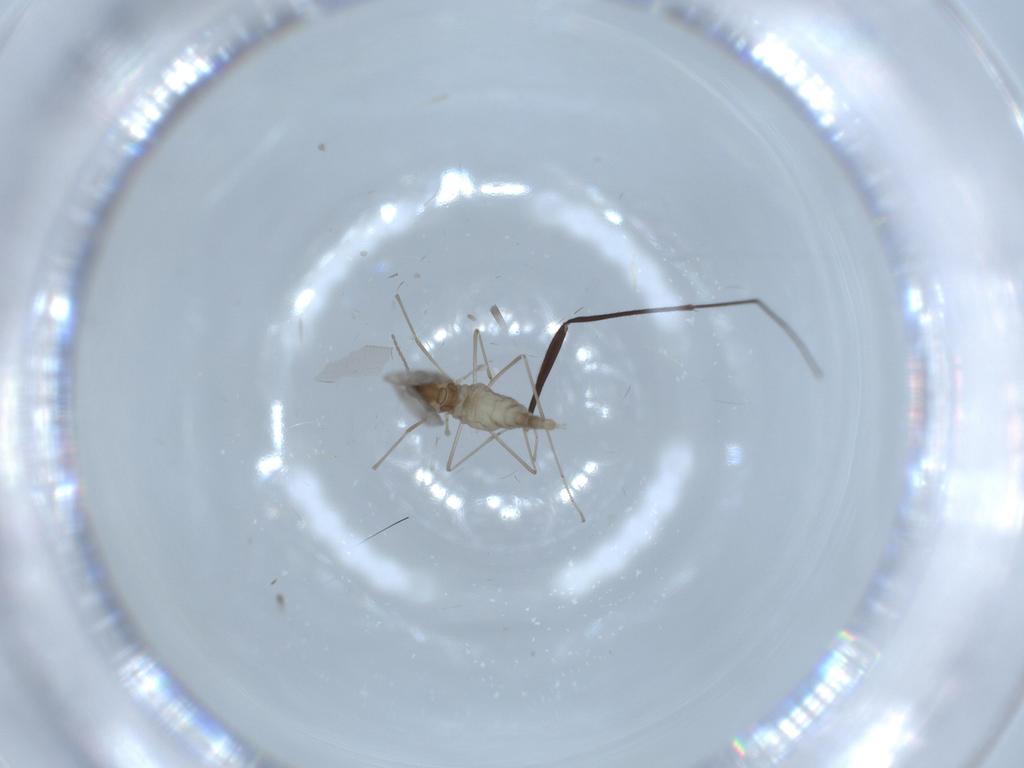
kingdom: Animalia
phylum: Arthropoda
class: Insecta
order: Diptera
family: Cecidomyiidae
